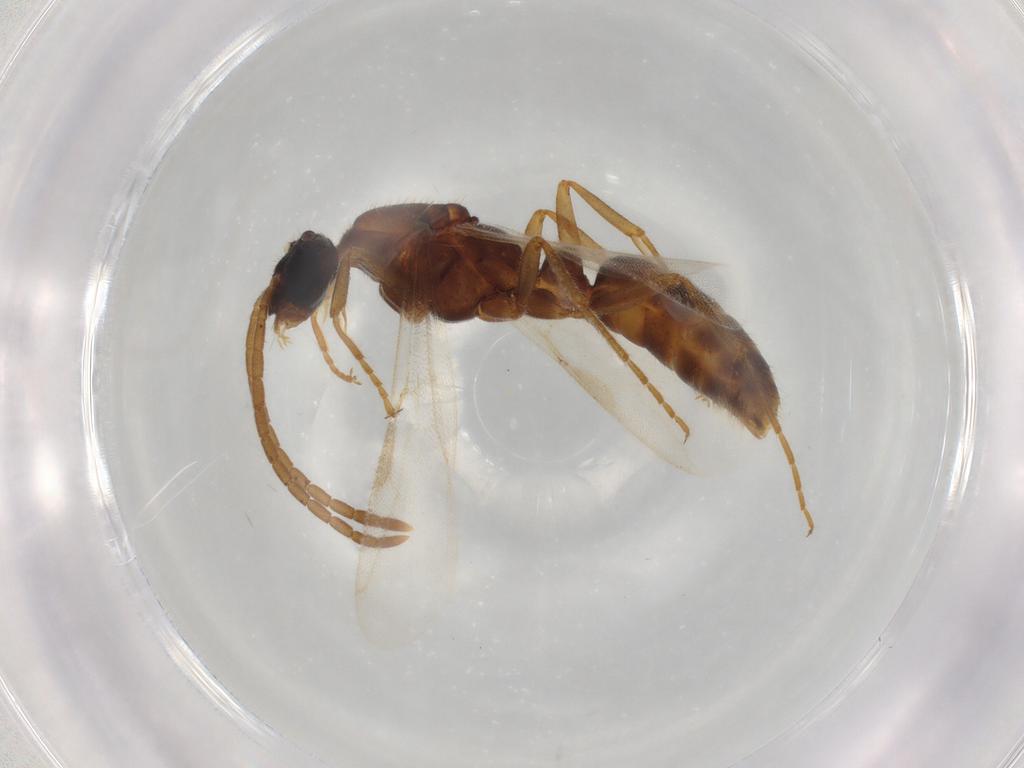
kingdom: Animalia
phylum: Arthropoda
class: Insecta
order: Hymenoptera
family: Formicidae
